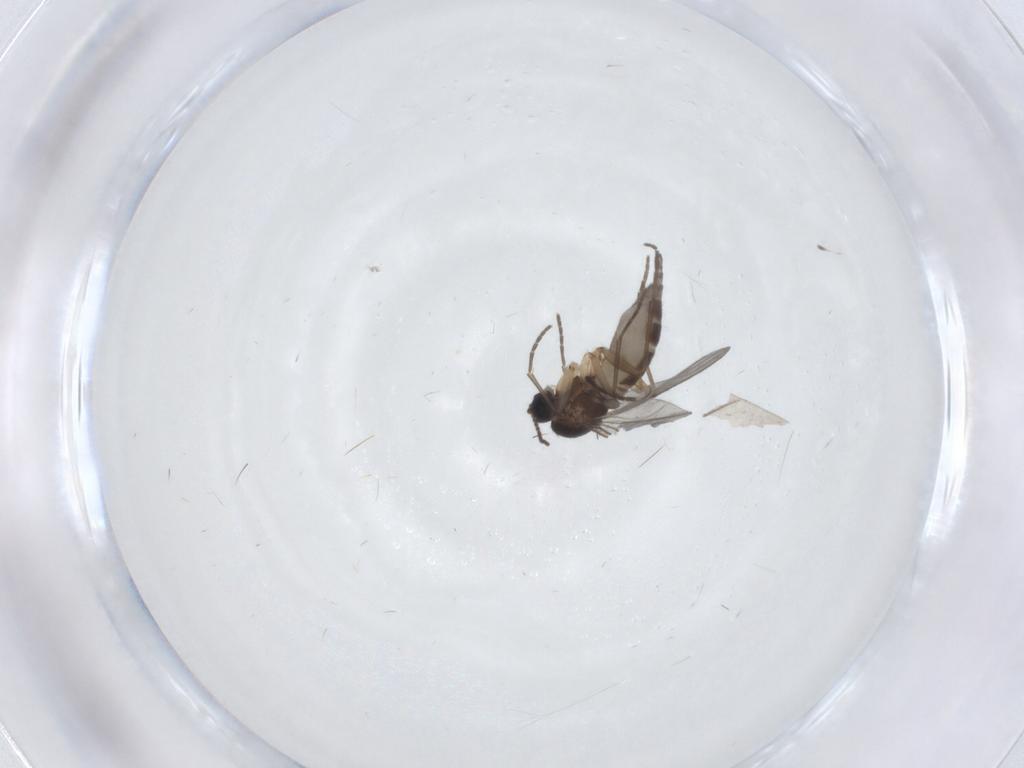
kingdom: Animalia
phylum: Arthropoda
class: Insecta
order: Diptera
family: Sciaridae
